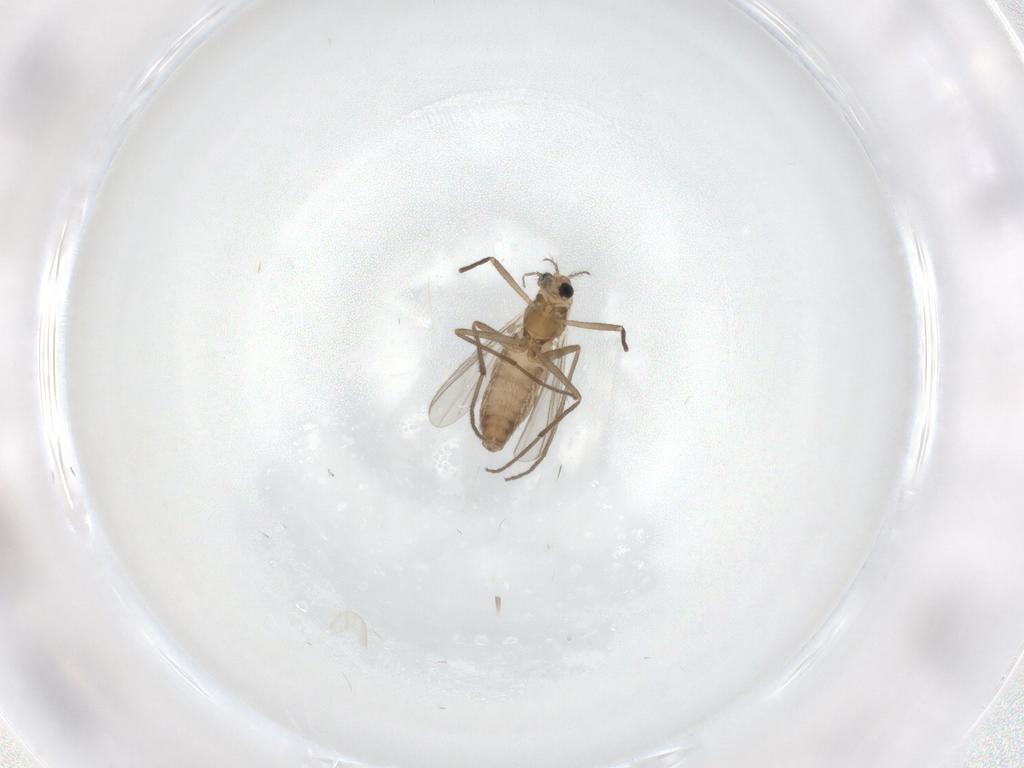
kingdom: Animalia
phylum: Arthropoda
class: Insecta
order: Diptera
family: Chironomidae
